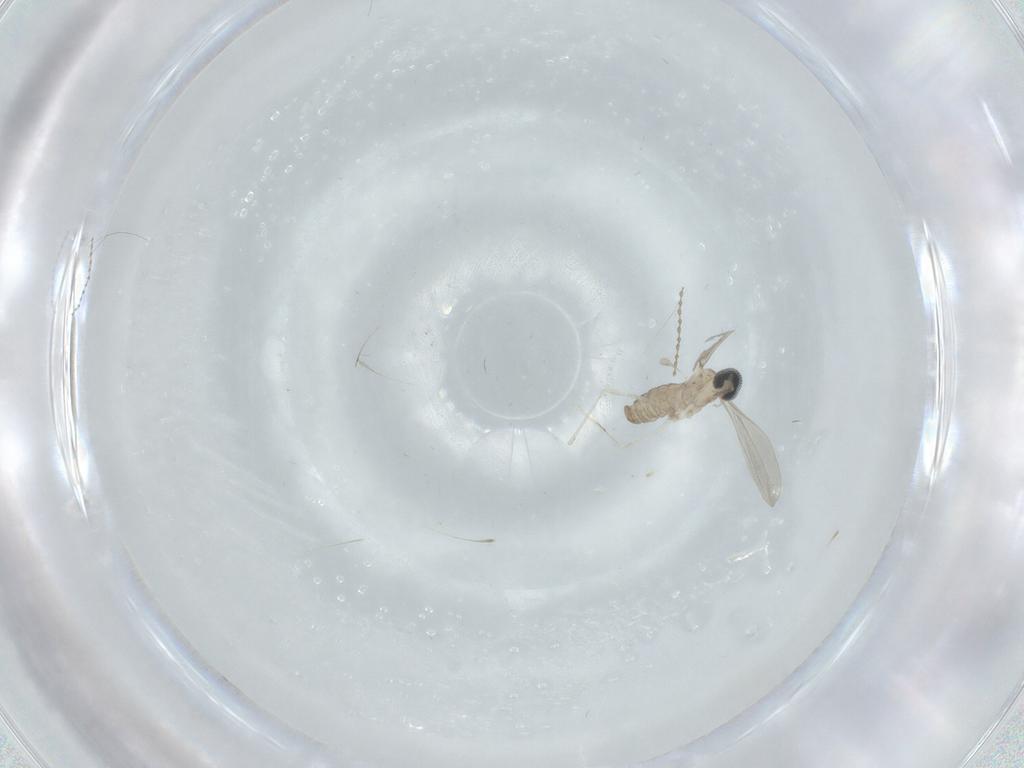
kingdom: Animalia
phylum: Arthropoda
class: Insecta
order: Diptera
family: Cecidomyiidae
